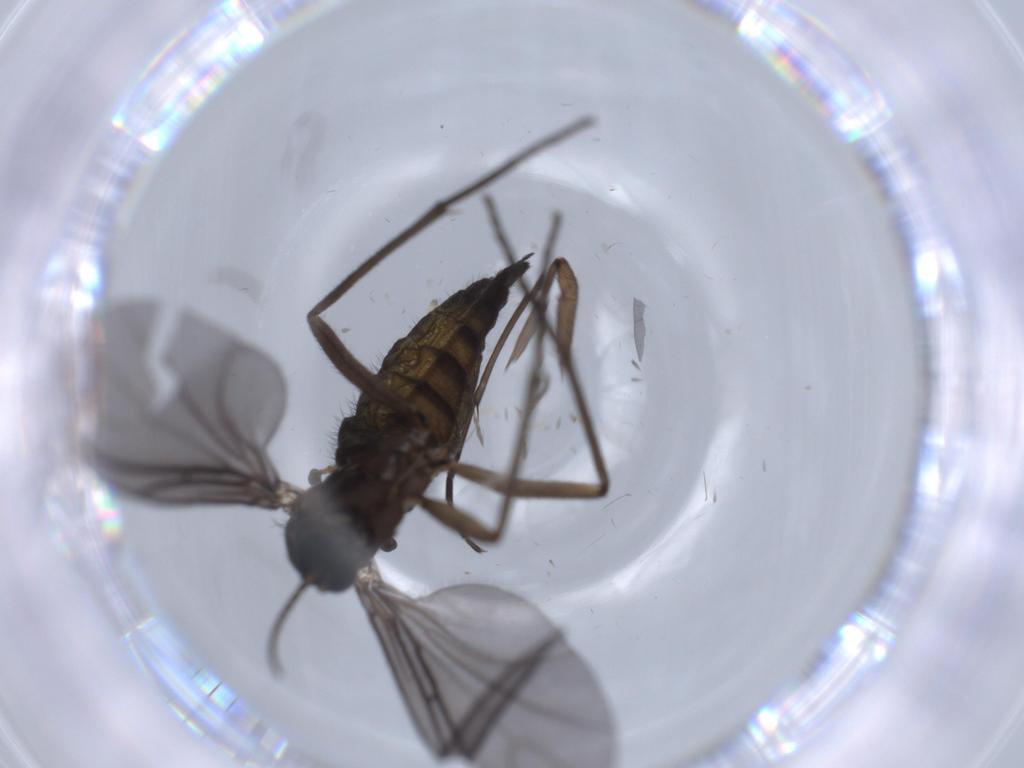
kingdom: Animalia
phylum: Arthropoda
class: Insecta
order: Diptera
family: Sciaridae
